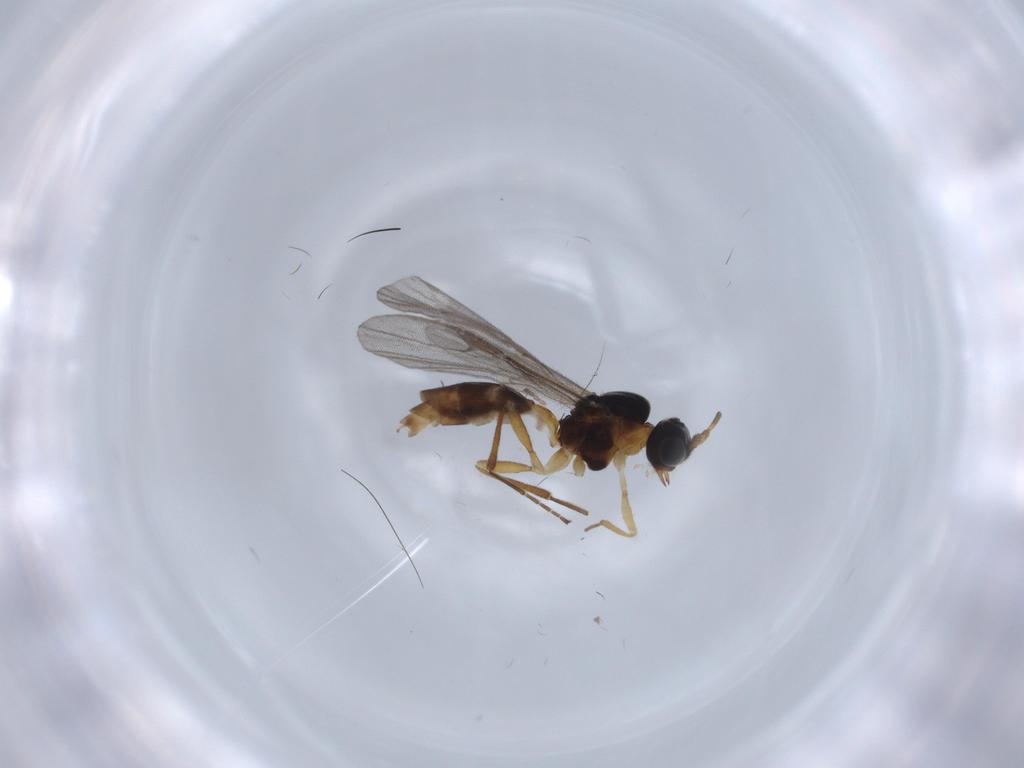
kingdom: Animalia
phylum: Arthropoda
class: Insecta
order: Hymenoptera
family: Braconidae
